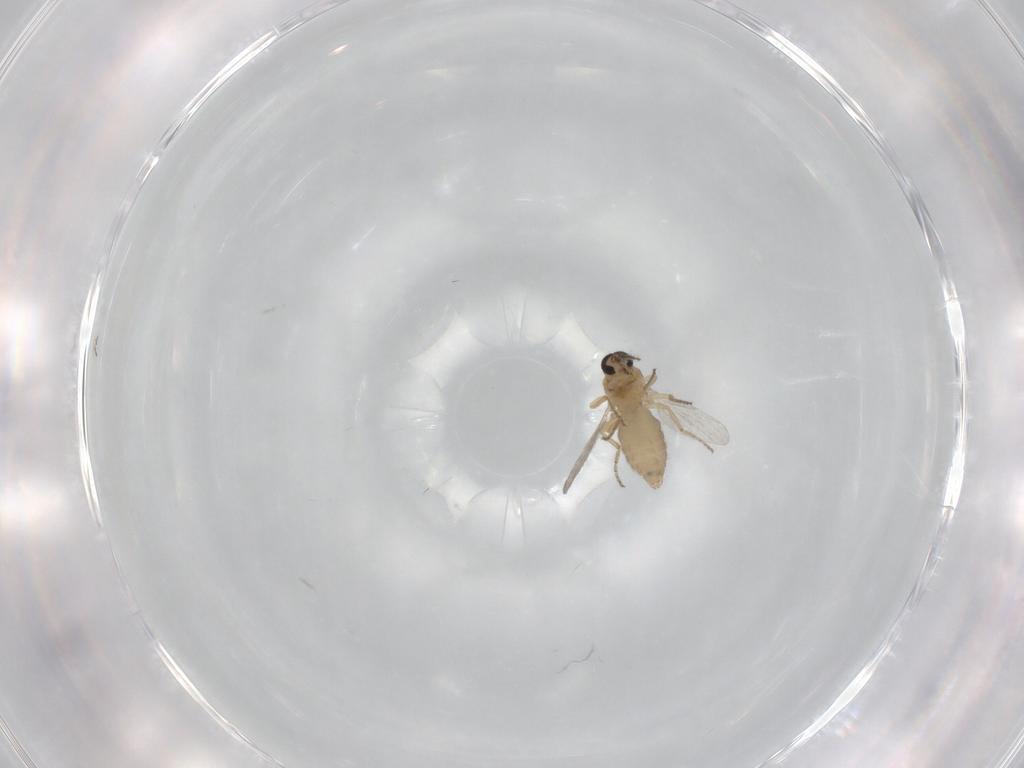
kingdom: Animalia
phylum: Arthropoda
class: Insecta
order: Diptera
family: Ceratopogonidae
